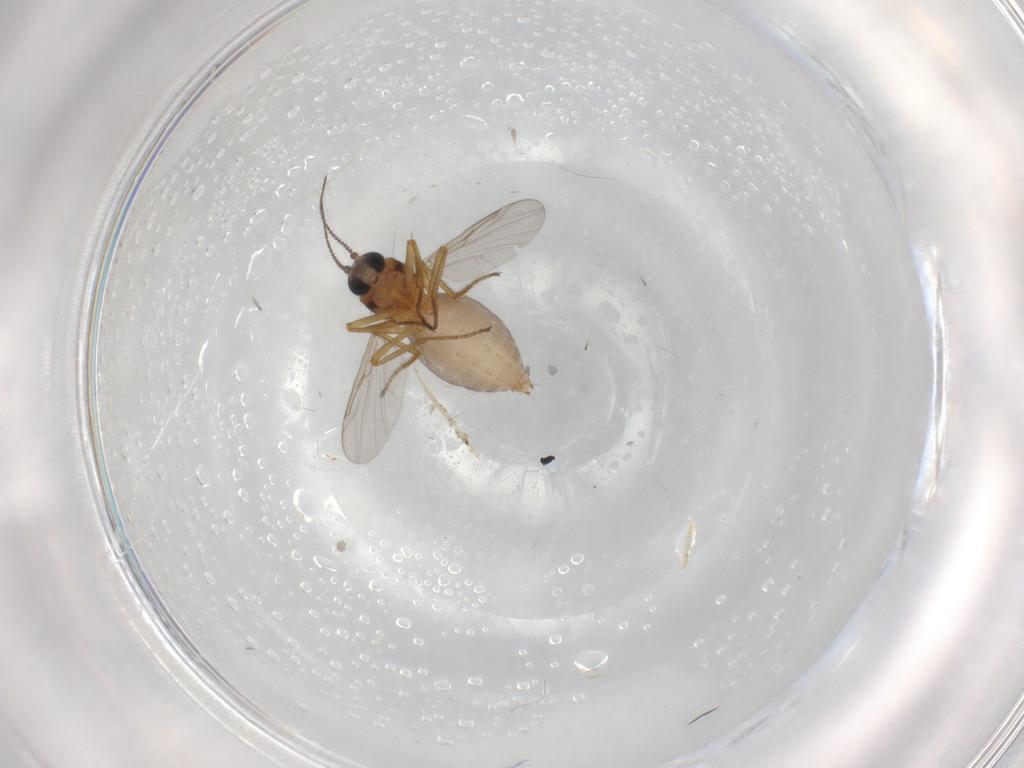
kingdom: Animalia
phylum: Arthropoda
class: Insecta
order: Diptera
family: Ceratopogonidae
